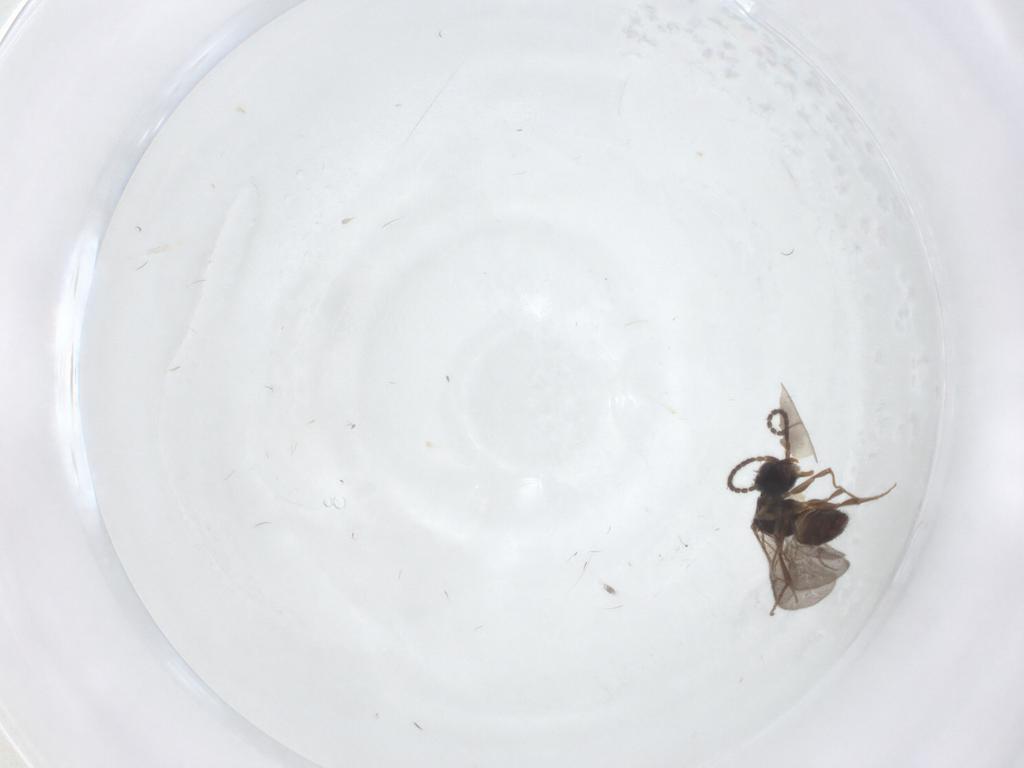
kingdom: Animalia
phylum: Arthropoda
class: Insecta
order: Hymenoptera
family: Bethylidae
